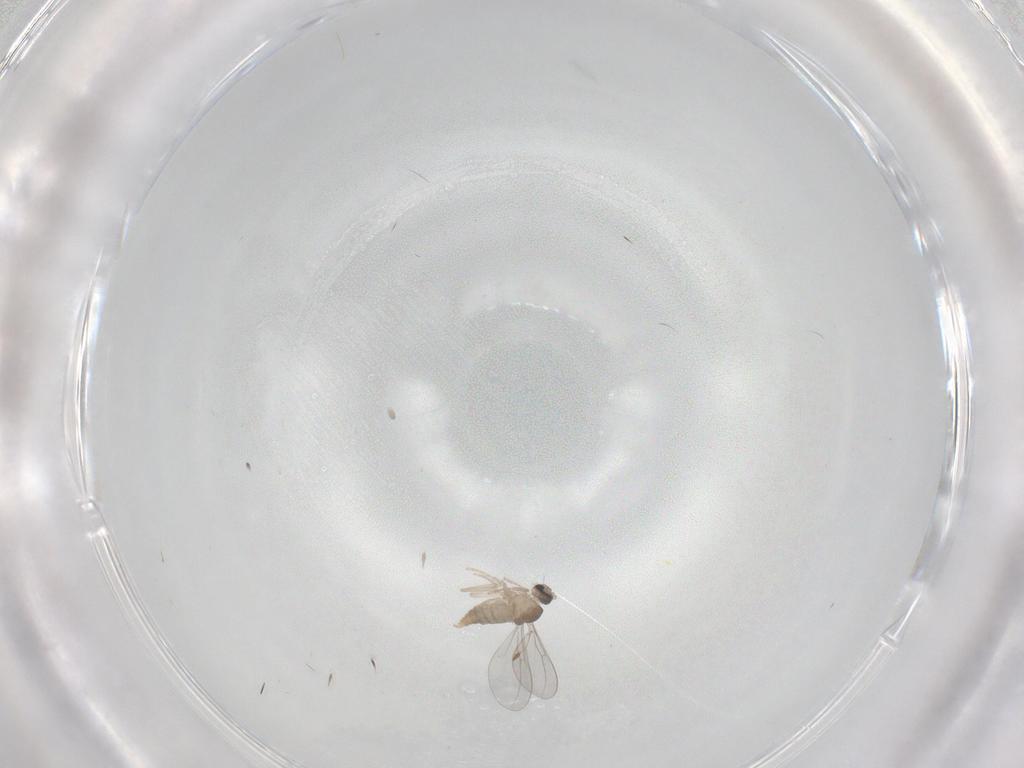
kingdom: Animalia
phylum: Arthropoda
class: Insecta
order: Diptera
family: Cecidomyiidae
